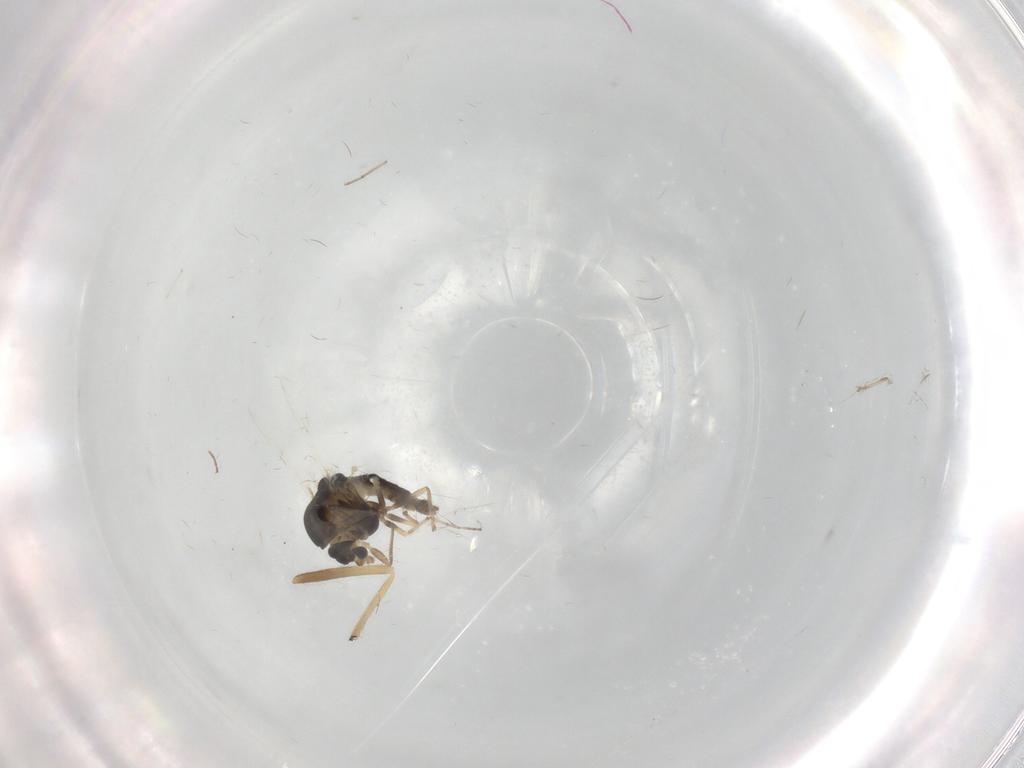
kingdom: Animalia
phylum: Arthropoda
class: Insecta
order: Diptera
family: Chironomidae
